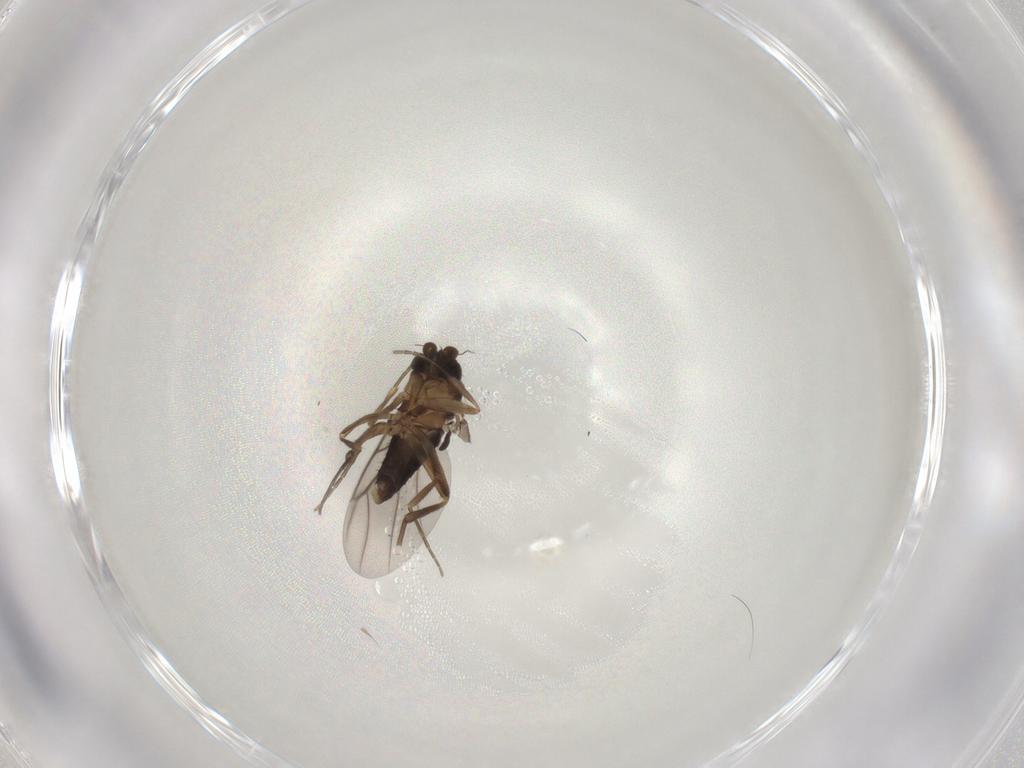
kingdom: Animalia
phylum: Arthropoda
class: Insecta
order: Diptera
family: Phoridae
